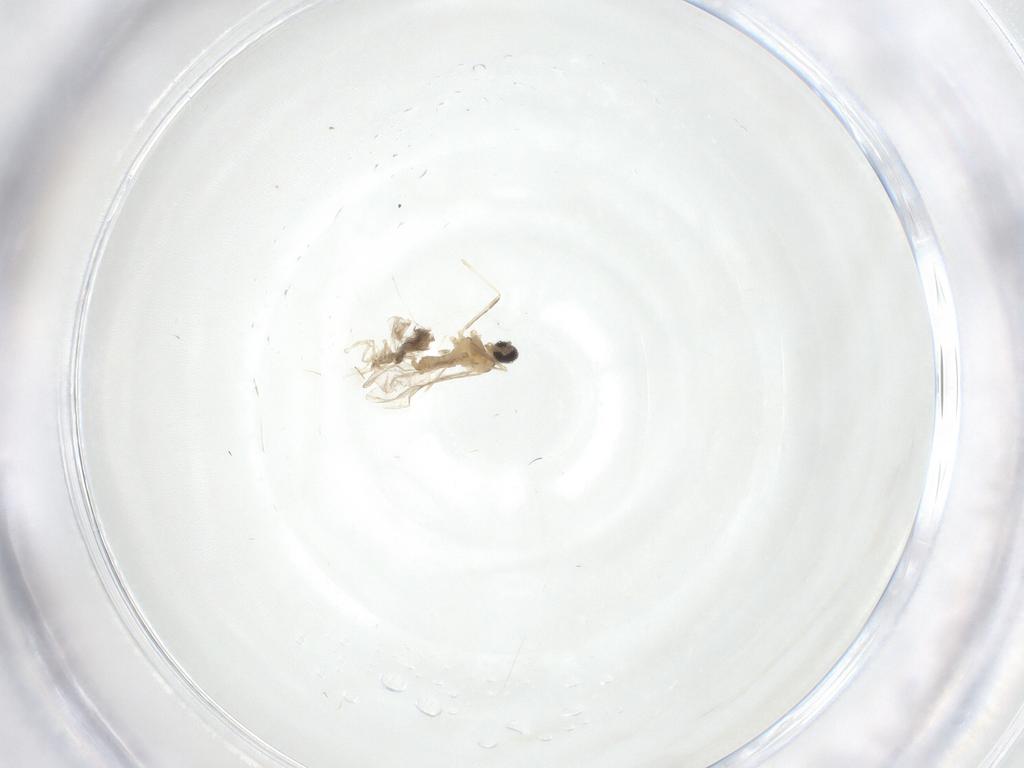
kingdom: Animalia
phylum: Arthropoda
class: Insecta
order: Diptera
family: Cecidomyiidae
